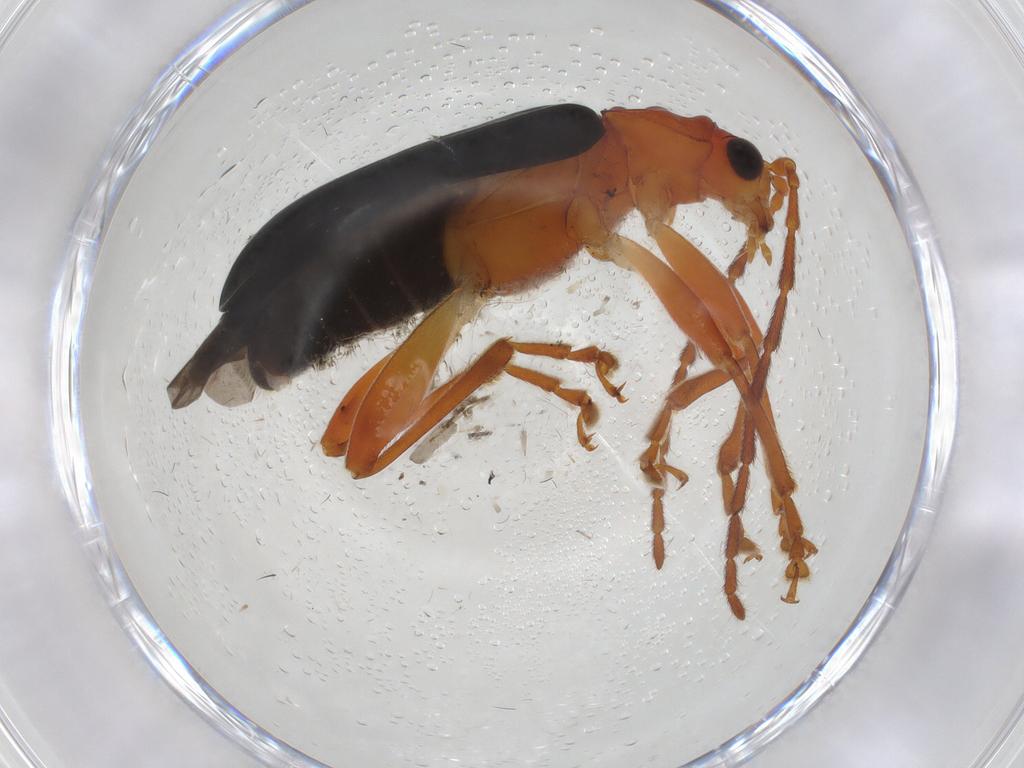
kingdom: Animalia
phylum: Arthropoda
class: Insecta
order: Coleoptera
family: Chrysomelidae
